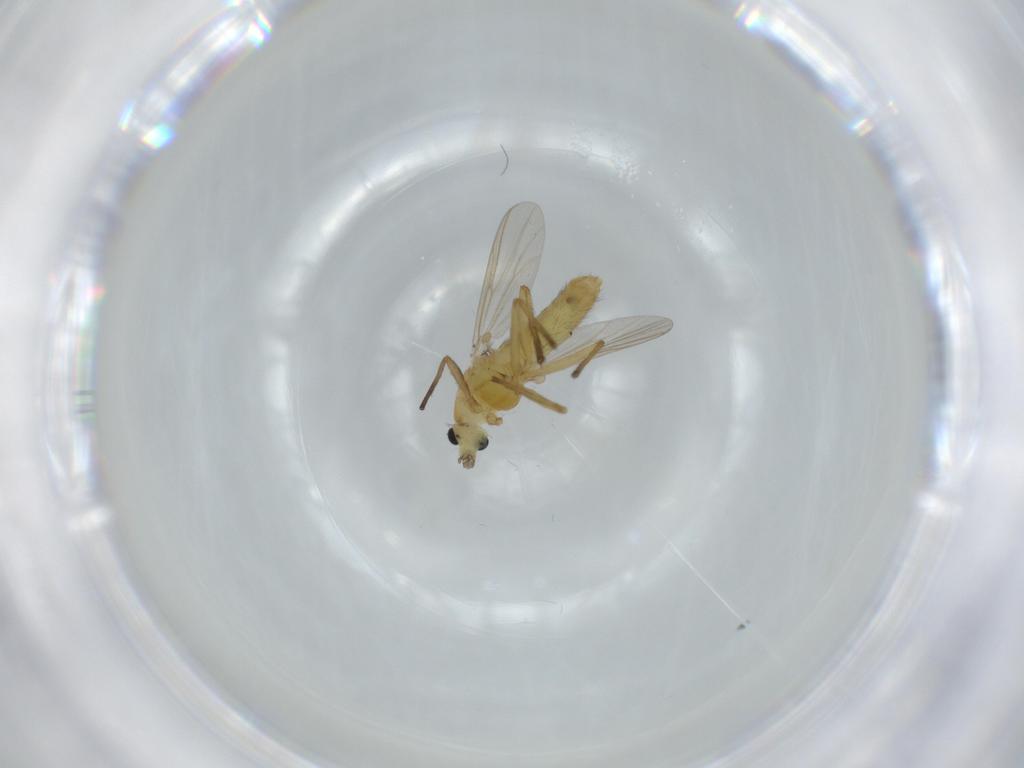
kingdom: Animalia
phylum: Arthropoda
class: Insecta
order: Diptera
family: Chironomidae
